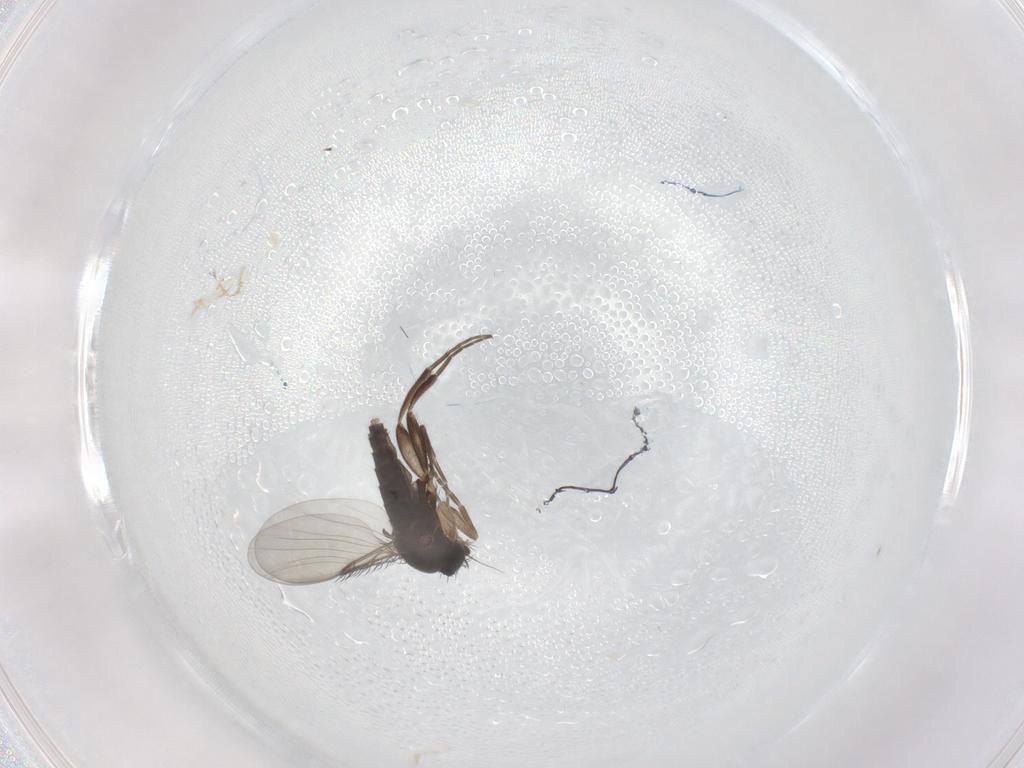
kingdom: Animalia
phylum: Arthropoda
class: Insecta
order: Diptera
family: Phoridae
